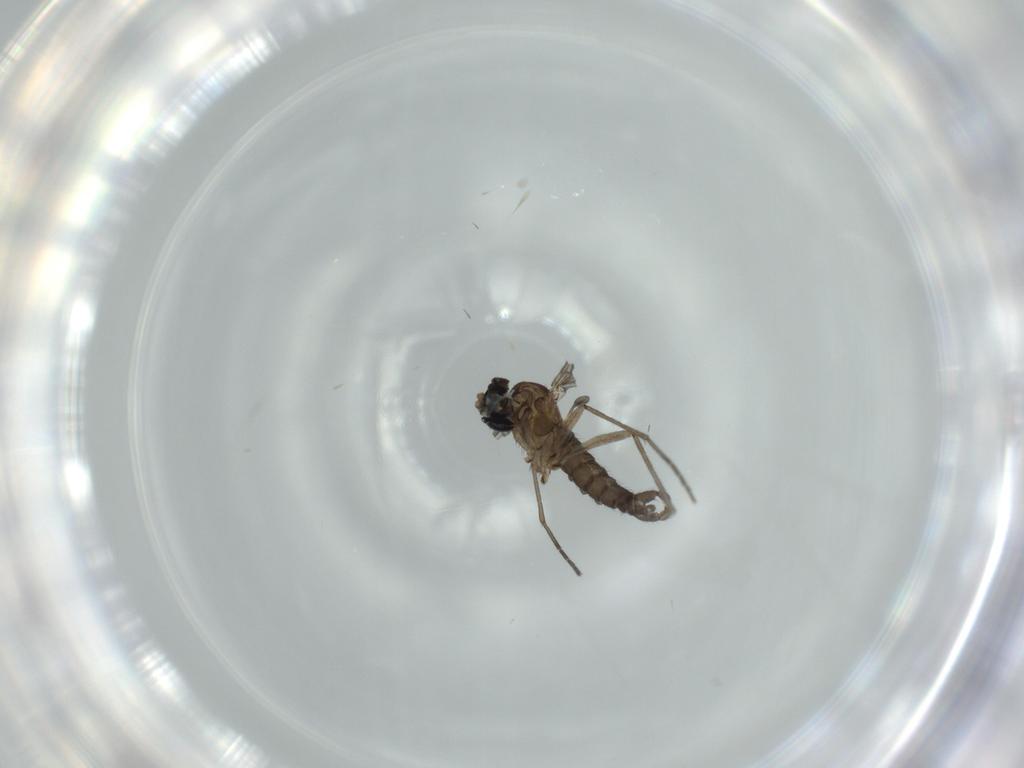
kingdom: Animalia
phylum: Arthropoda
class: Insecta
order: Diptera
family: Sciaridae
